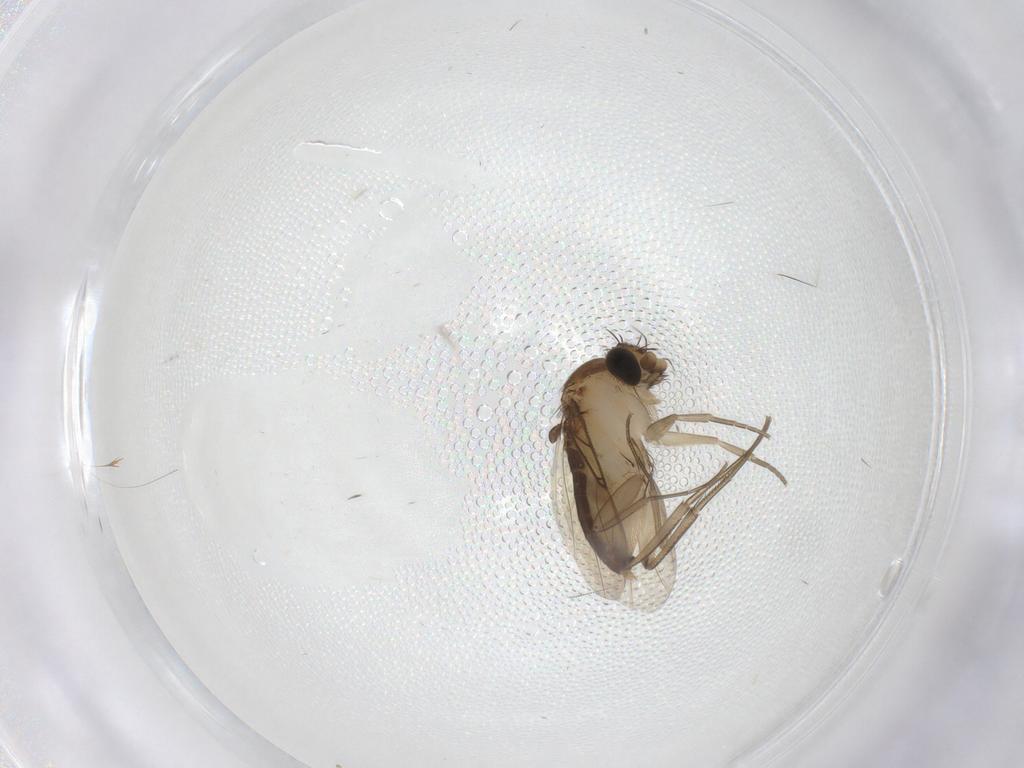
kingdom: Animalia
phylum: Arthropoda
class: Insecta
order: Diptera
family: Phoridae
